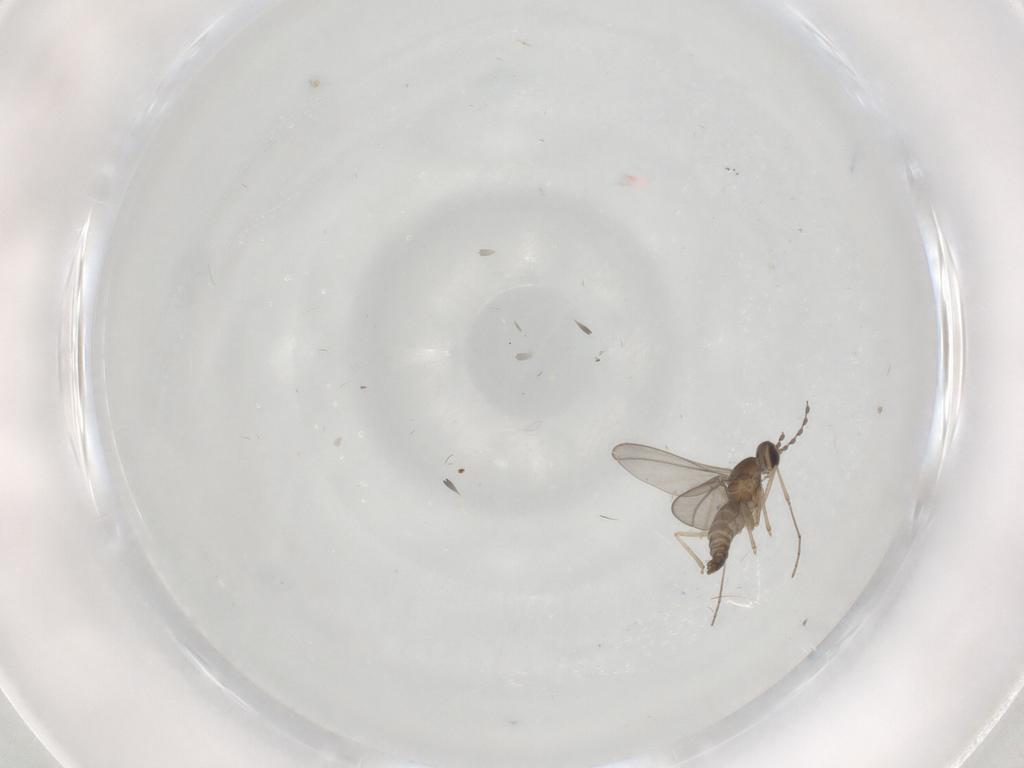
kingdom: Animalia
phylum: Arthropoda
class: Insecta
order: Diptera
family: Cecidomyiidae
